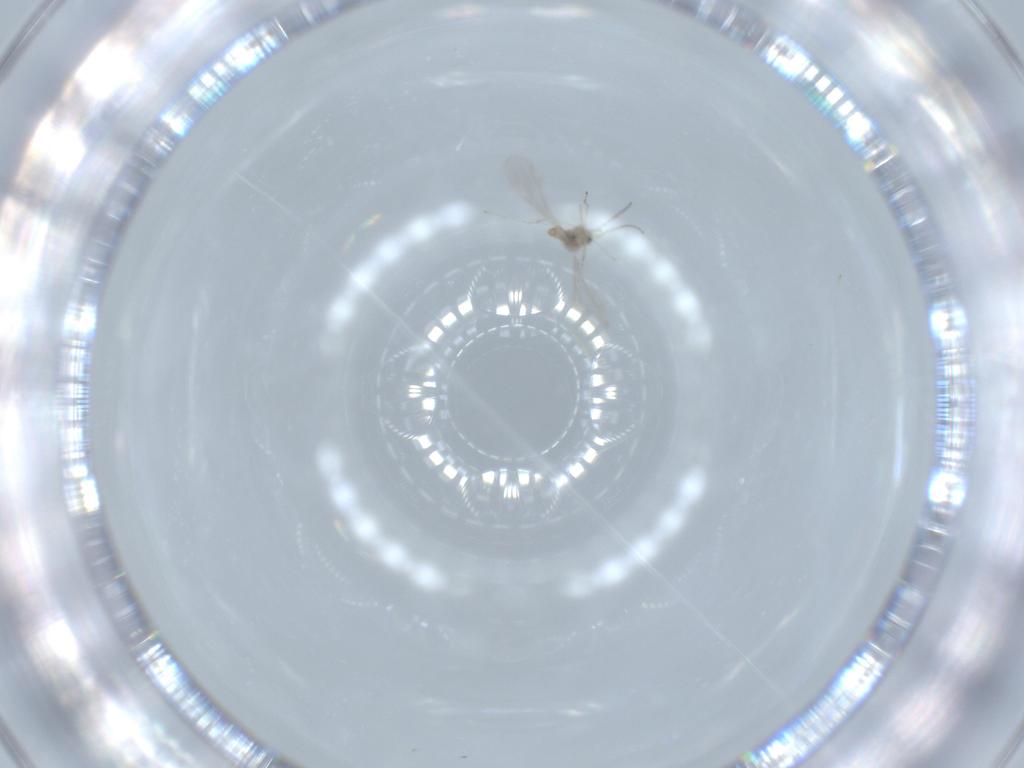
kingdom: Animalia
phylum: Arthropoda
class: Insecta
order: Diptera
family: Cecidomyiidae
